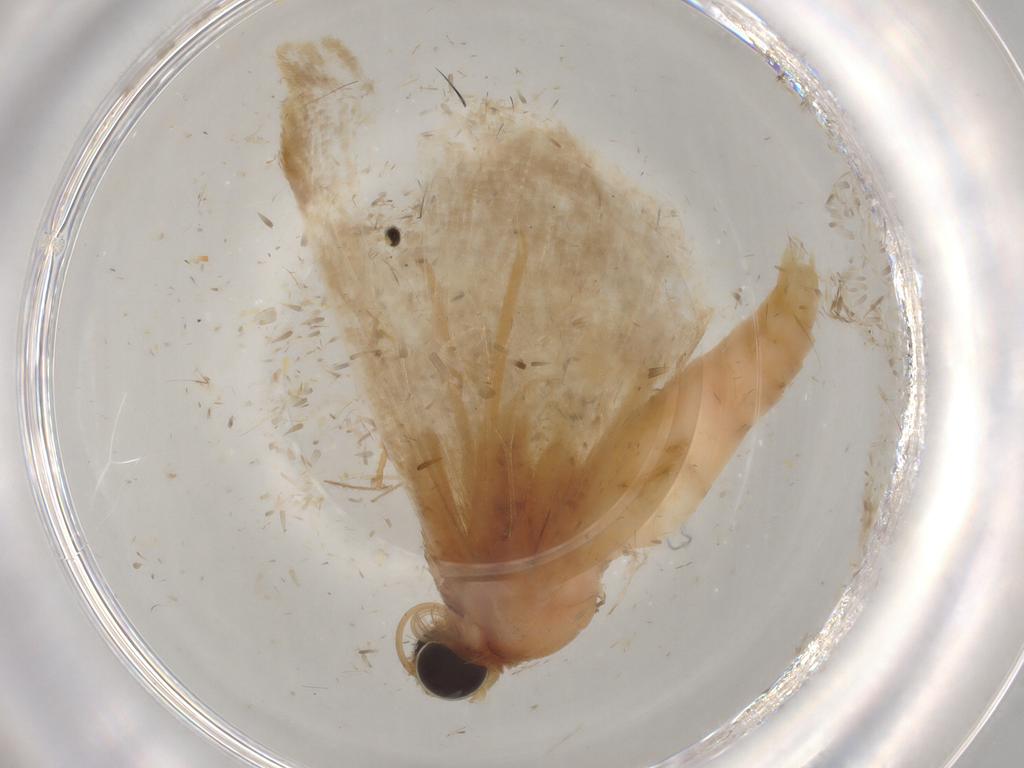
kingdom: Animalia
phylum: Arthropoda
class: Insecta
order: Lepidoptera
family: Geometridae
